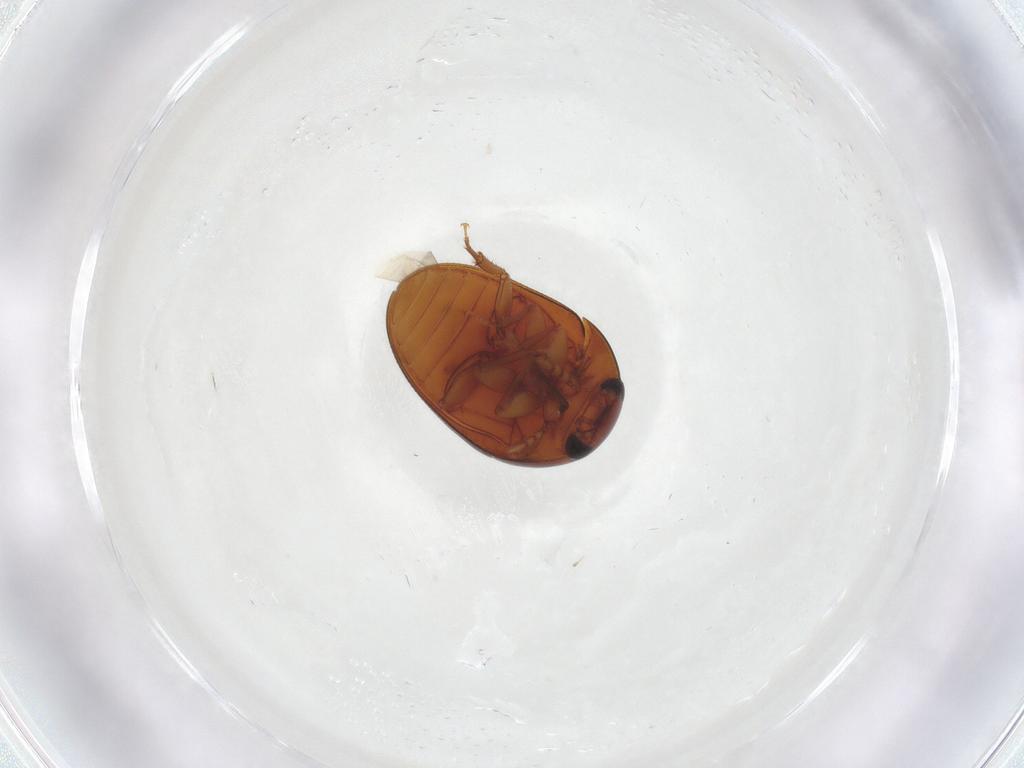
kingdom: Animalia
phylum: Arthropoda
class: Insecta
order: Coleoptera
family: Phalacridae
